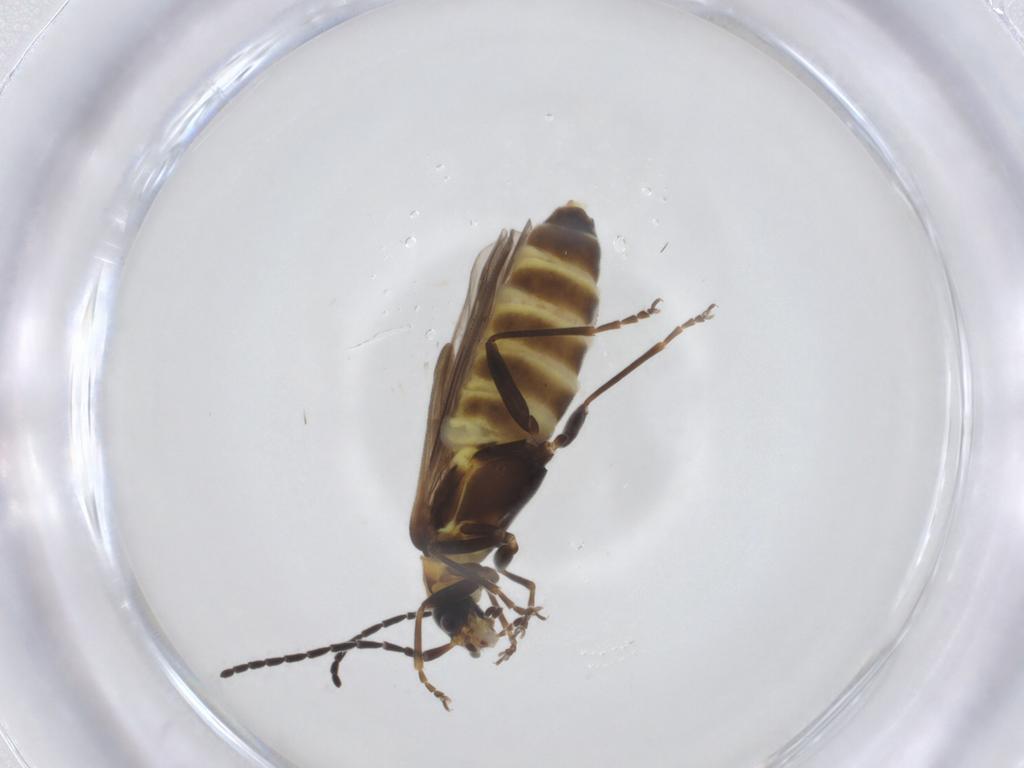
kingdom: Animalia
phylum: Arthropoda
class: Insecta
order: Coleoptera
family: Cantharidae
